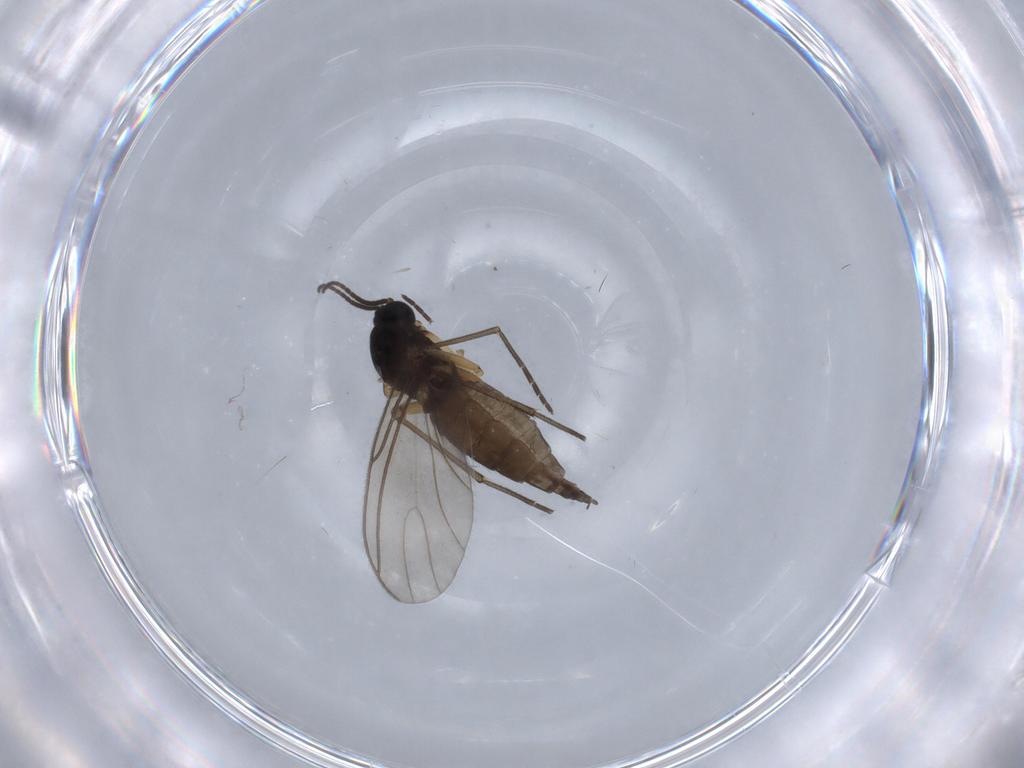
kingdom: Animalia
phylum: Arthropoda
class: Insecta
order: Diptera
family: Sciaridae
